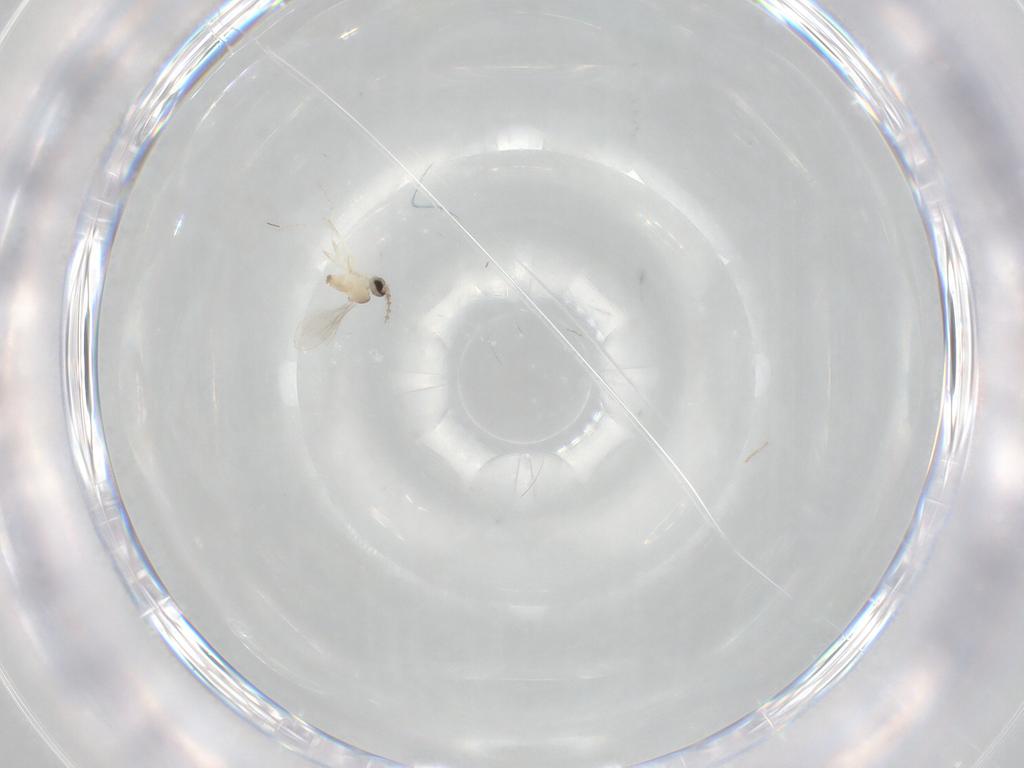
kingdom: Animalia
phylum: Arthropoda
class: Insecta
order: Diptera
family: Cecidomyiidae
